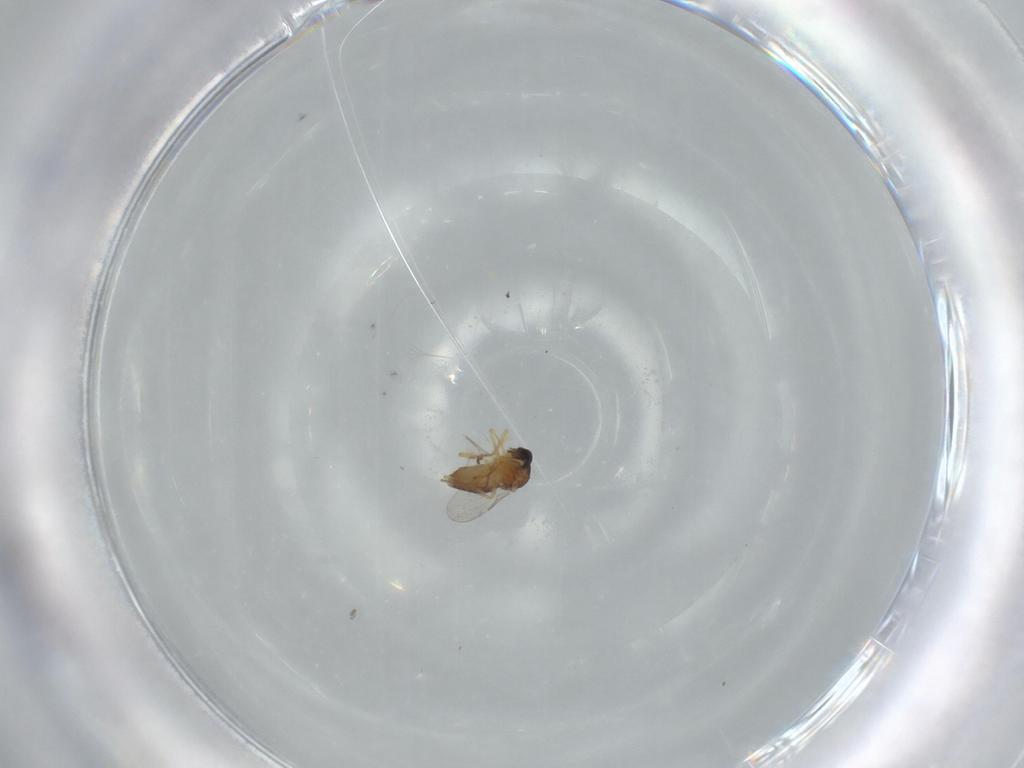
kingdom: Animalia
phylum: Arthropoda
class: Insecta
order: Diptera
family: Ceratopogonidae
